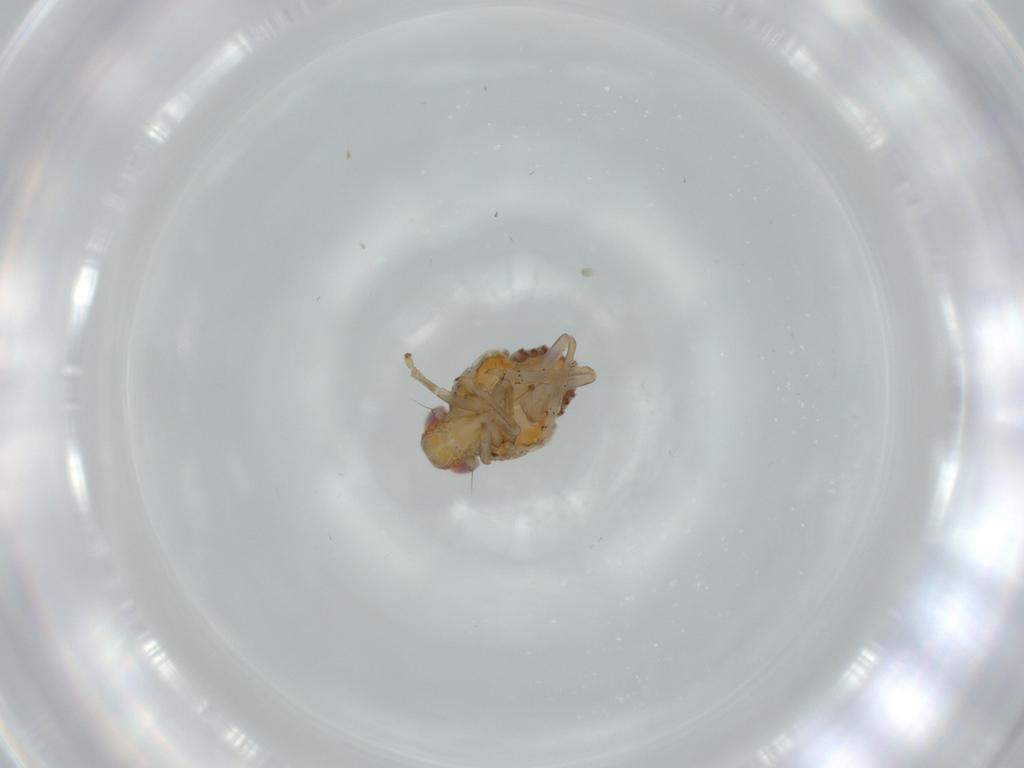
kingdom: Animalia
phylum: Arthropoda
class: Insecta
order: Hemiptera
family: Issidae
